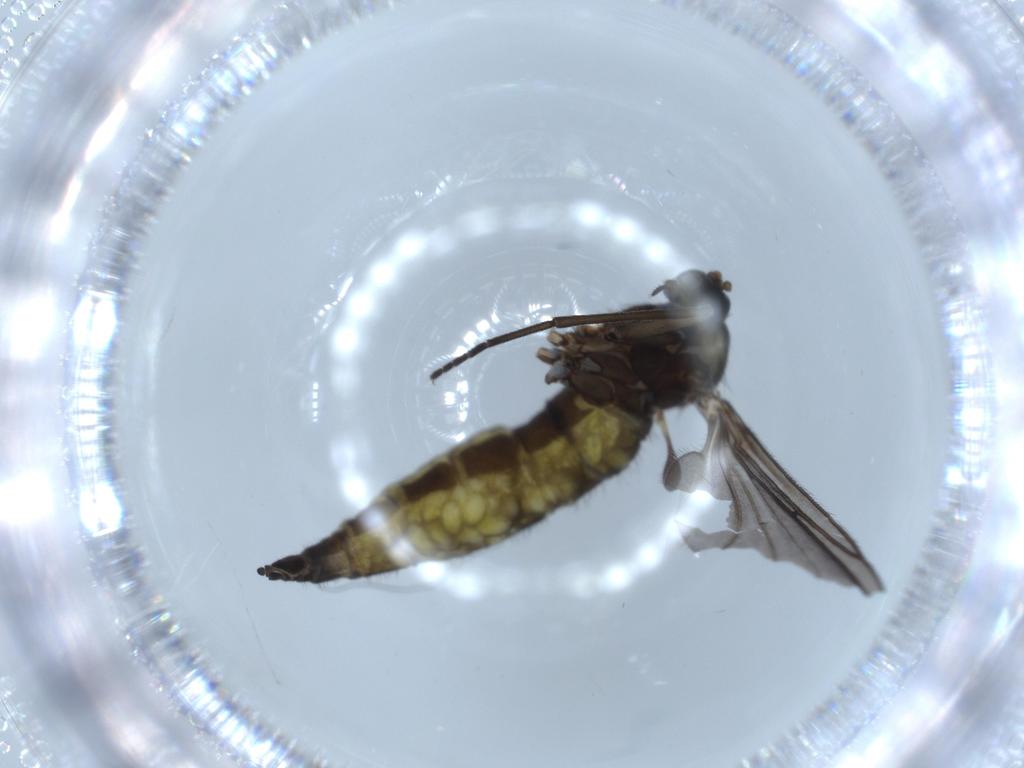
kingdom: Animalia
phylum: Arthropoda
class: Insecta
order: Diptera
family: Sciaridae
